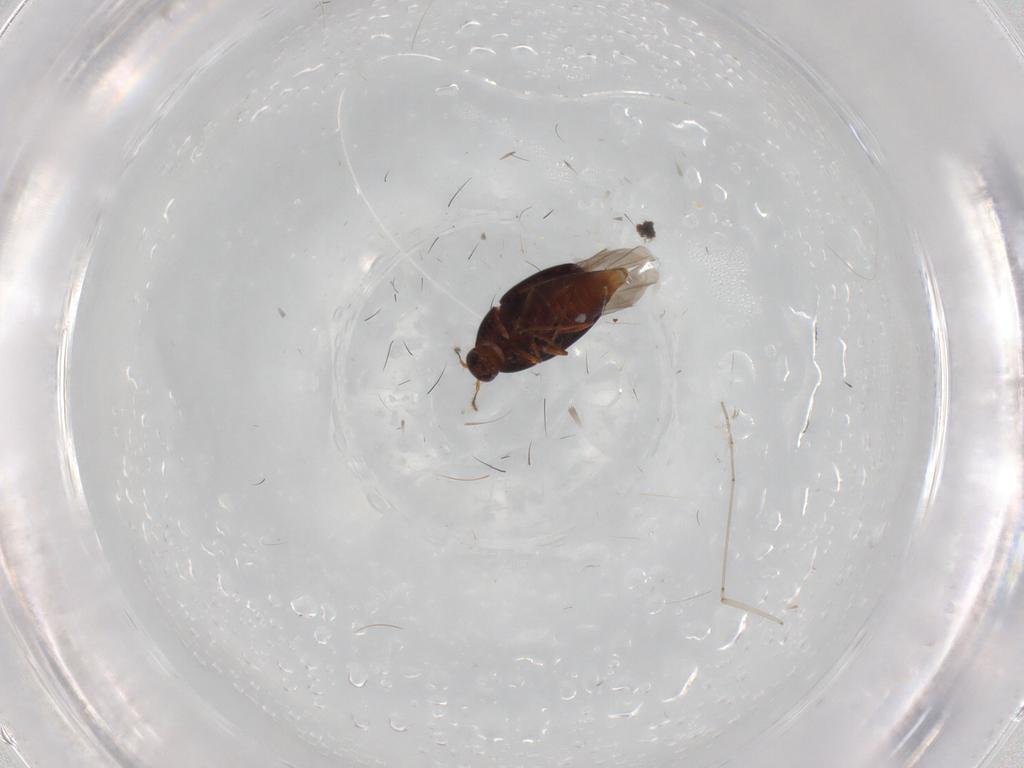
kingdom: Animalia
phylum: Arthropoda
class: Insecta
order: Coleoptera
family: Staphylinidae
